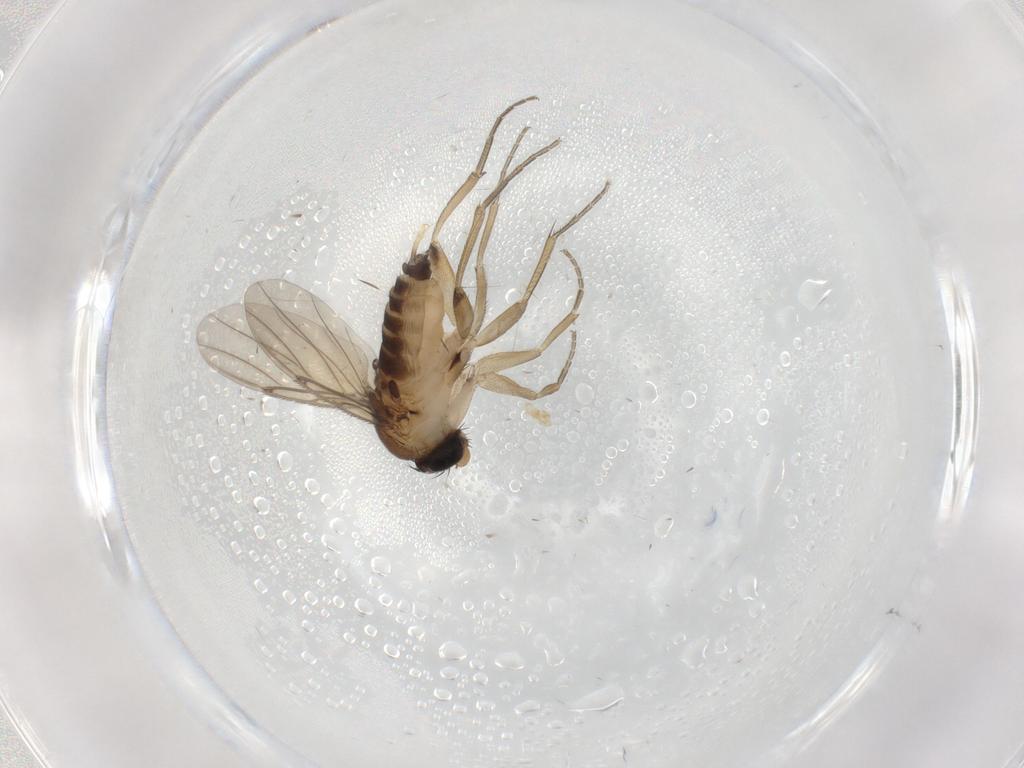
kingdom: Animalia
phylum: Arthropoda
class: Insecta
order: Diptera
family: Phoridae
